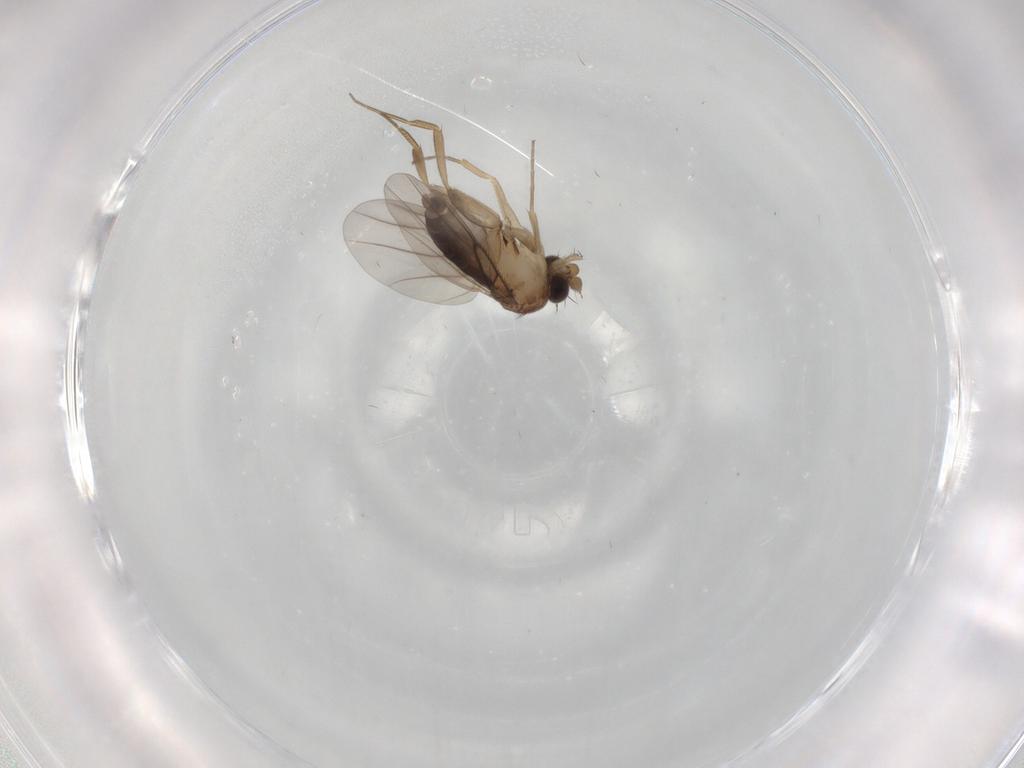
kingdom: Animalia
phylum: Arthropoda
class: Insecta
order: Diptera
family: Phoridae
